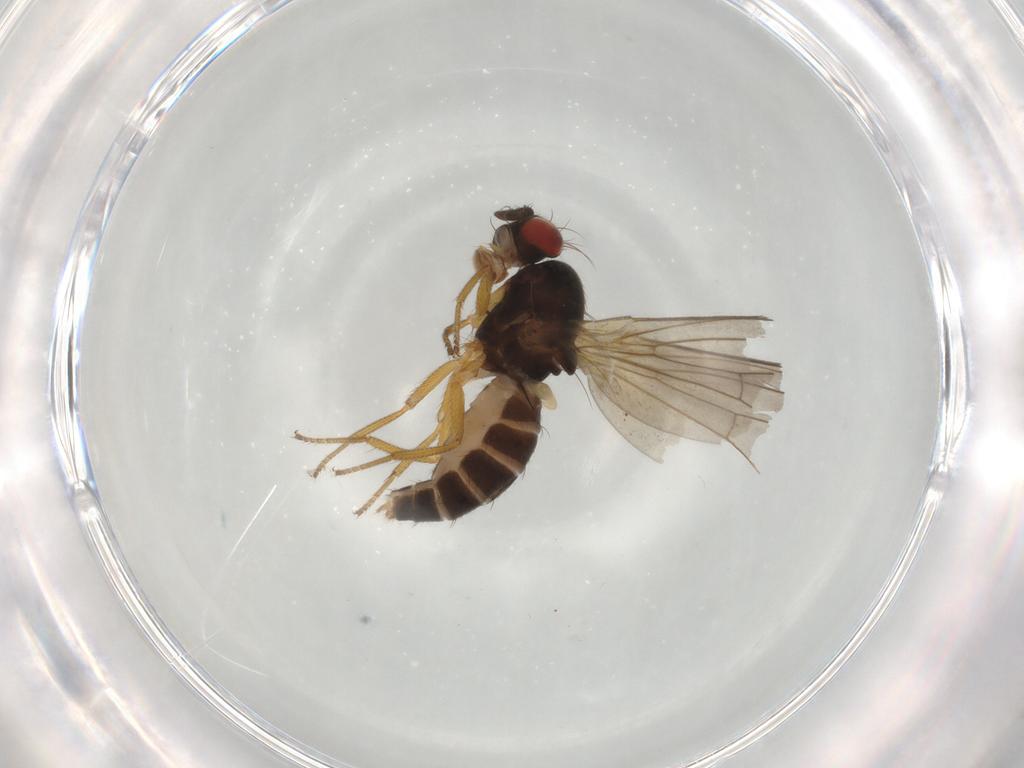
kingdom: Animalia
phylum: Arthropoda
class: Insecta
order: Diptera
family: Drosophilidae
